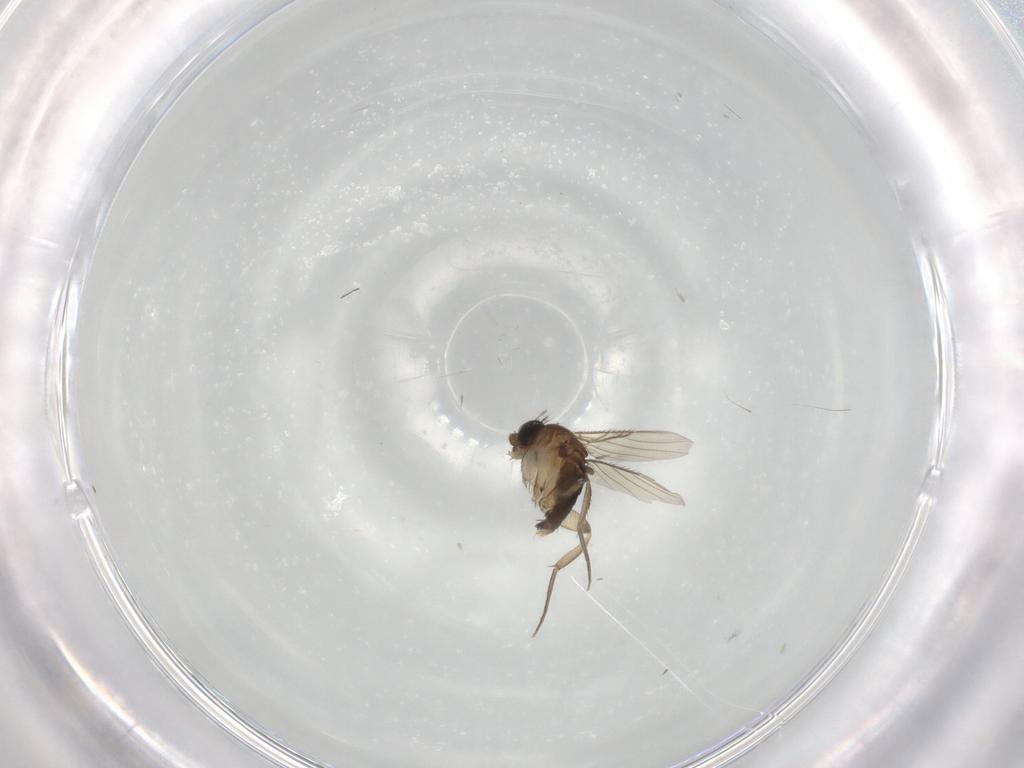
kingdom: Animalia
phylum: Arthropoda
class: Insecta
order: Diptera
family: Phoridae
